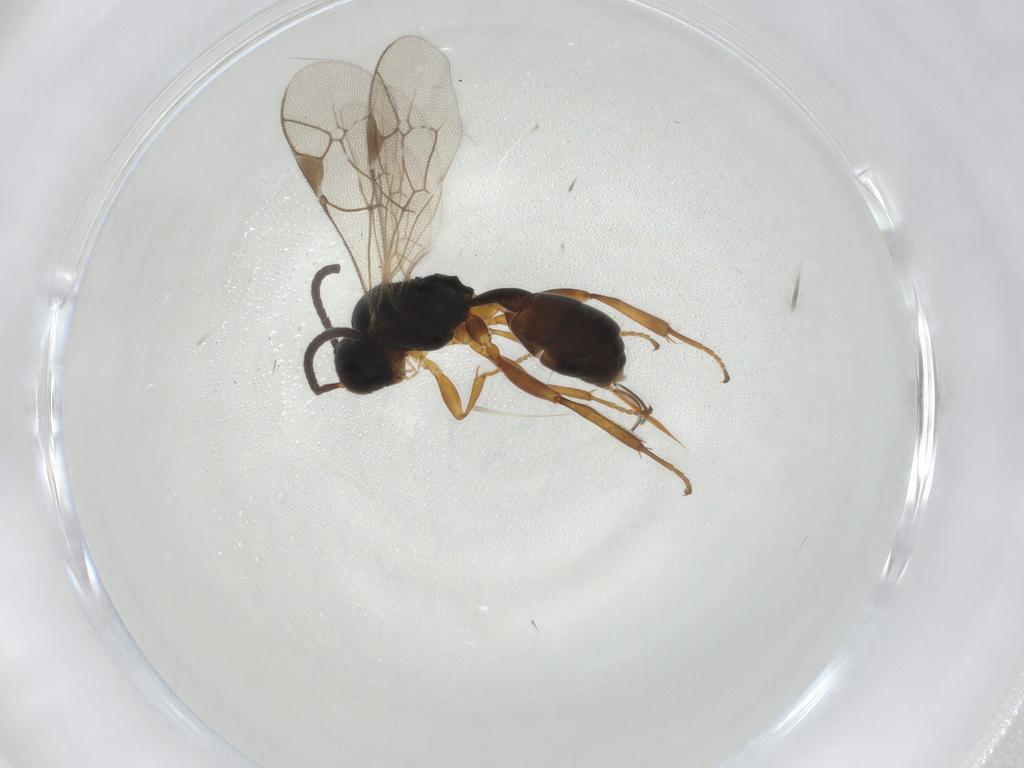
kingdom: Animalia
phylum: Arthropoda
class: Insecta
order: Hymenoptera
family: Ichneumonidae
